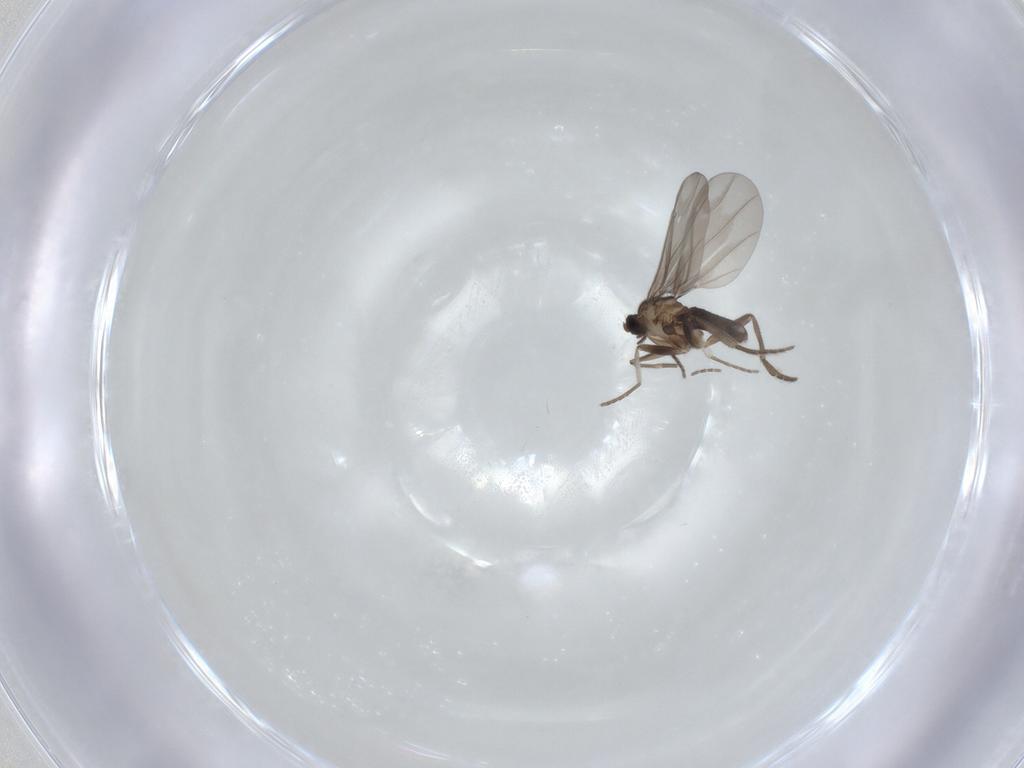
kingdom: Animalia
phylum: Arthropoda
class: Insecta
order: Diptera
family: Phoridae
